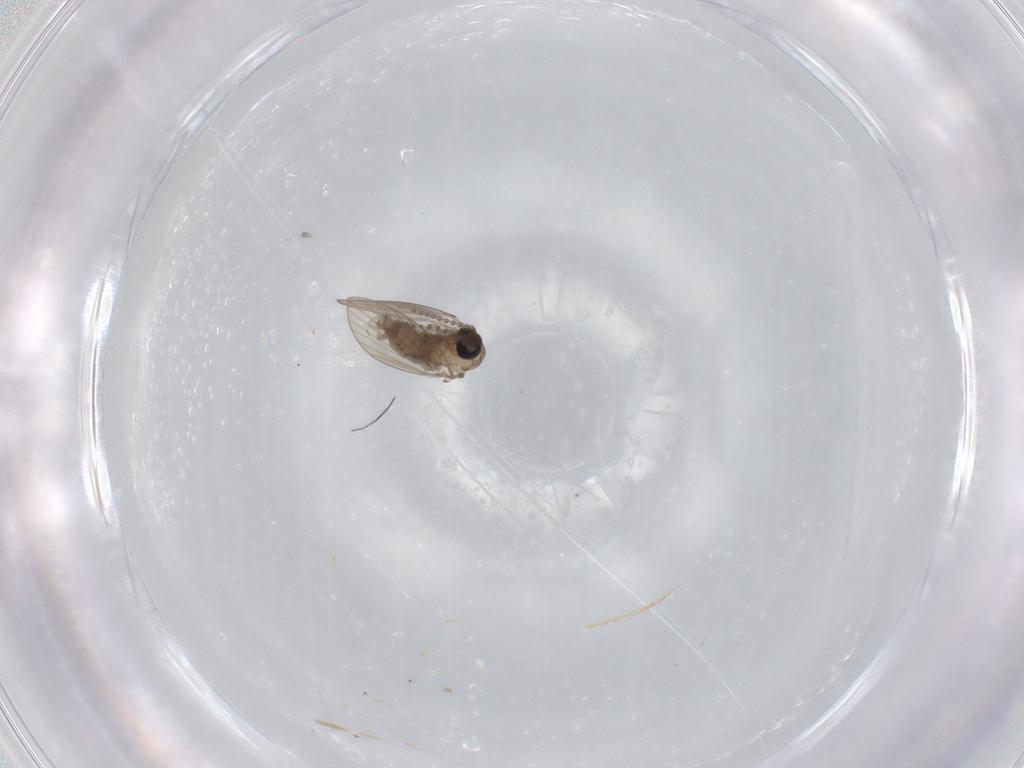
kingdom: Animalia
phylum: Arthropoda
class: Insecta
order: Diptera
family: Psychodidae
